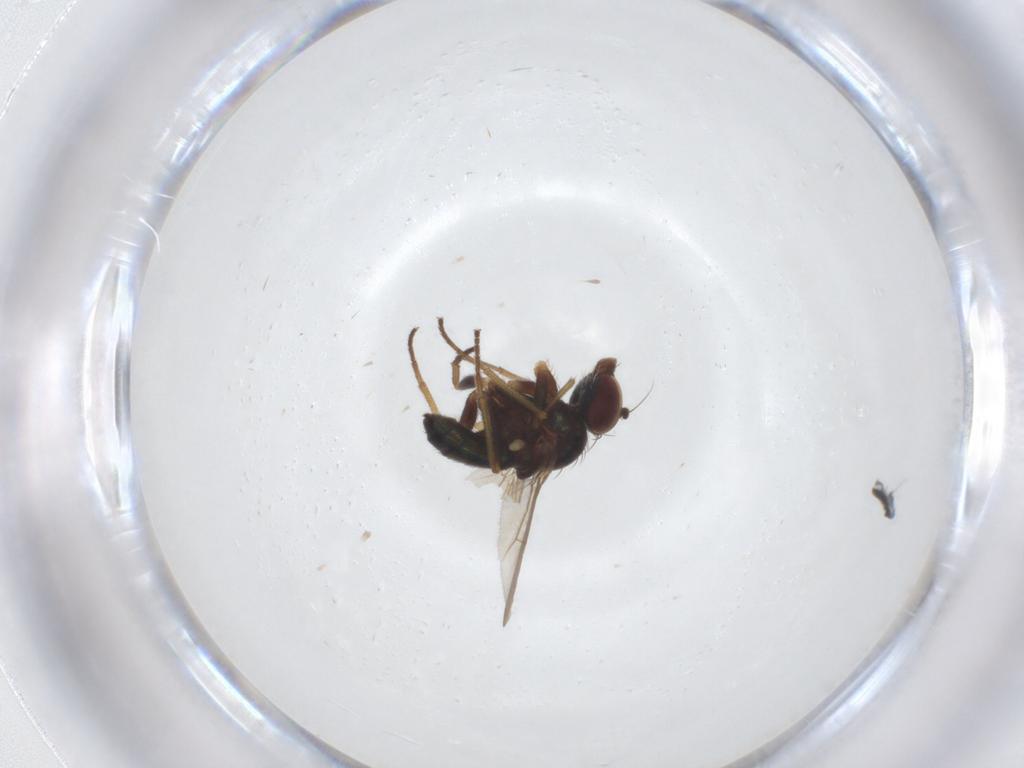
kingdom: Animalia
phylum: Arthropoda
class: Insecta
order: Diptera
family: Dolichopodidae
